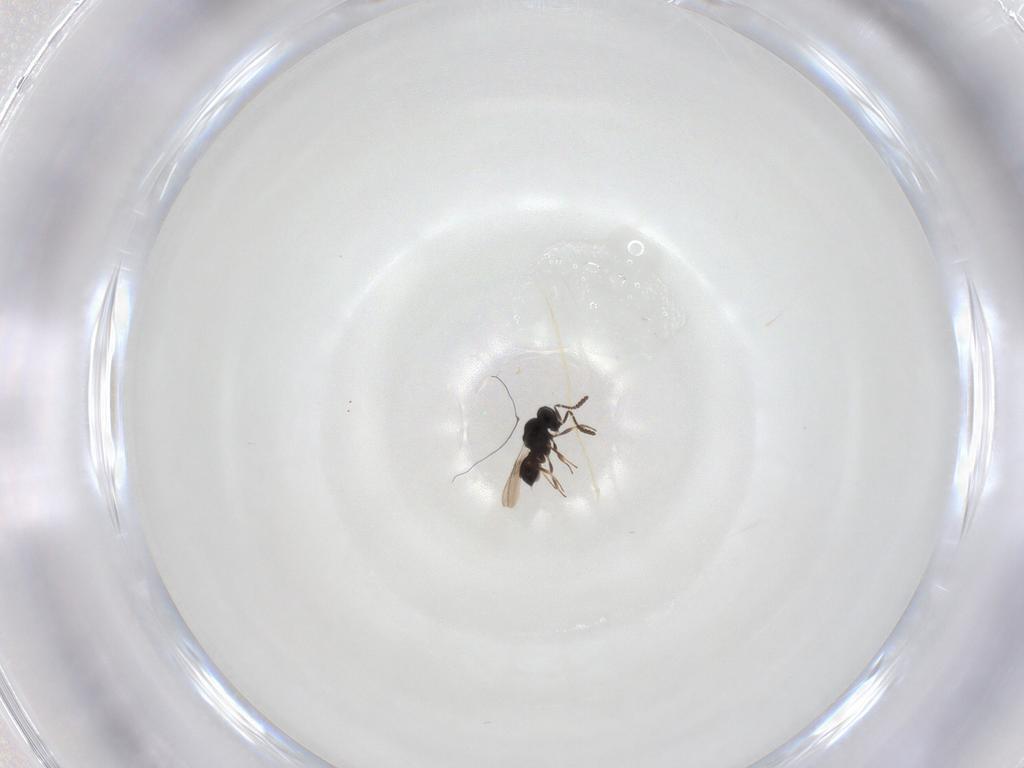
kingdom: Animalia
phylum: Arthropoda
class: Insecta
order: Hymenoptera
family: Scelionidae
